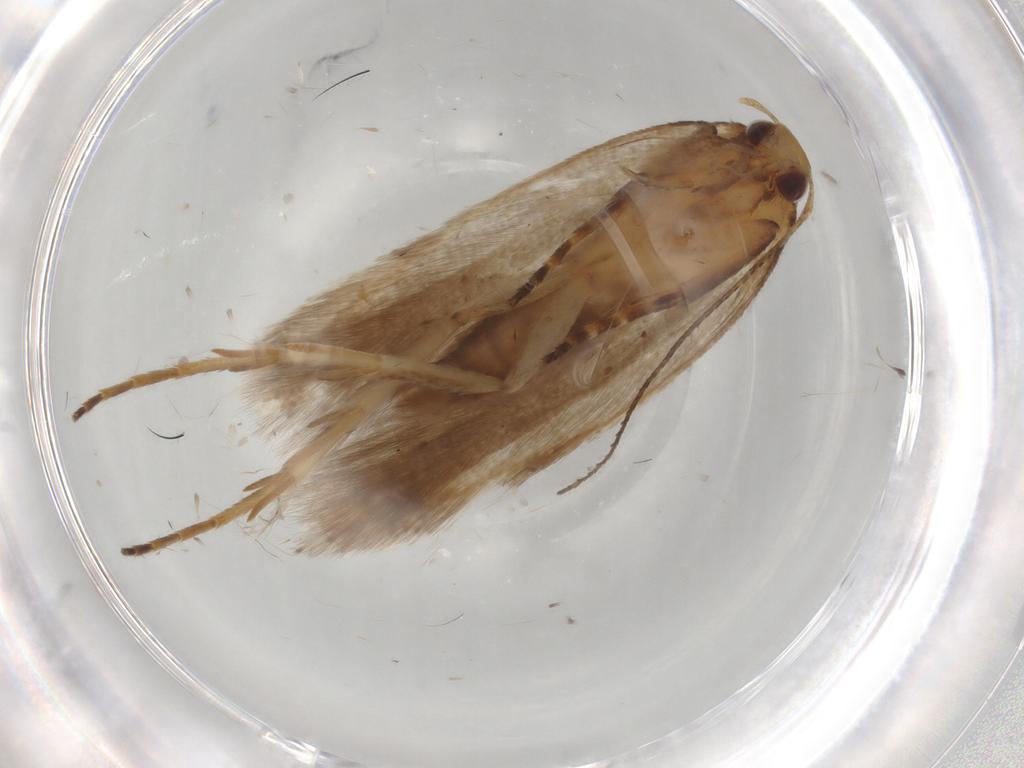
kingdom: Animalia
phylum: Arthropoda
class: Insecta
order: Lepidoptera
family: Gelechiidae
